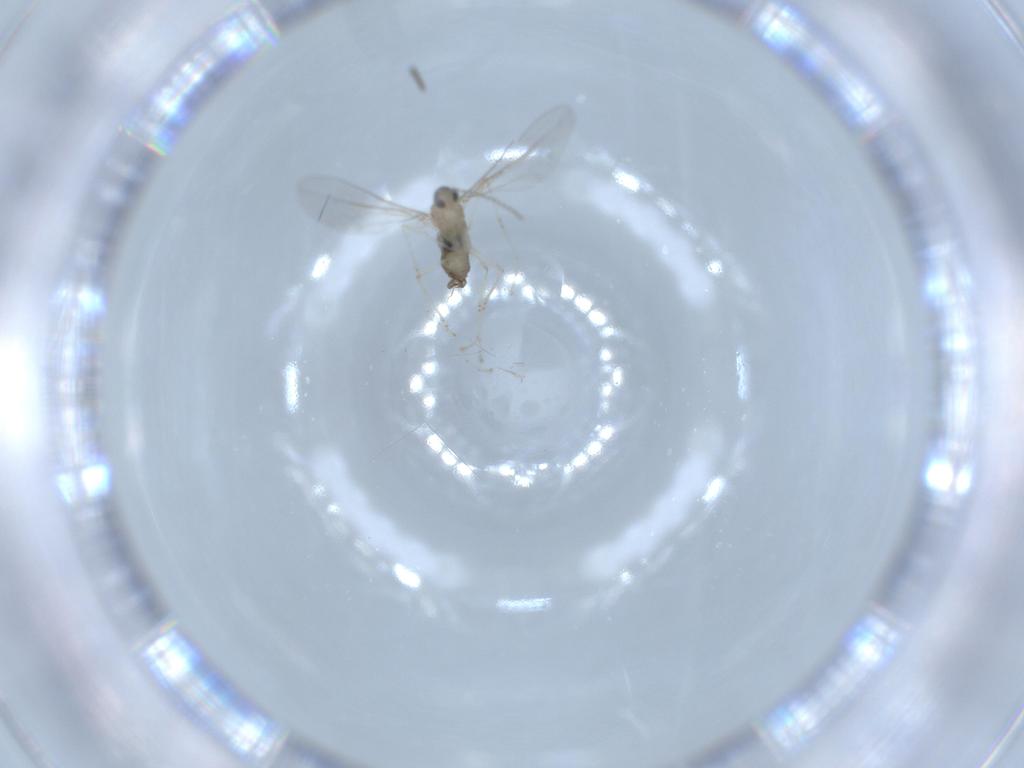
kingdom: Animalia
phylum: Arthropoda
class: Insecta
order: Diptera
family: Cecidomyiidae
